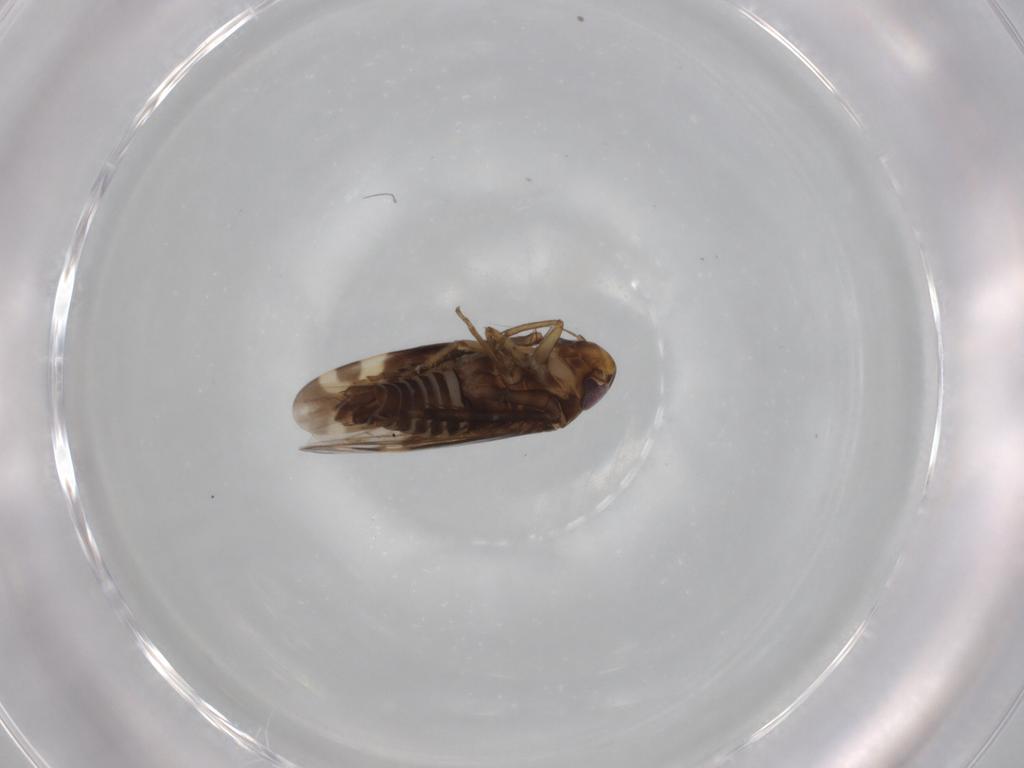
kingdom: Animalia
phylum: Arthropoda
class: Insecta
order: Hemiptera
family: Cicadellidae
